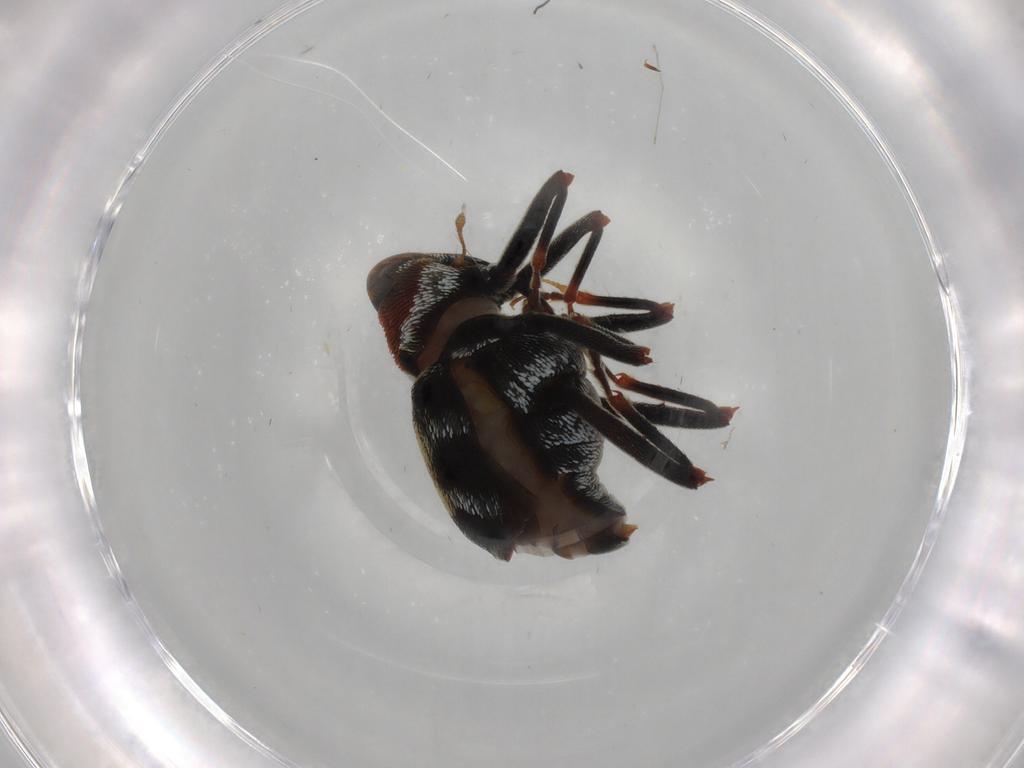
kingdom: Animalia
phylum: Arthropoda
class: Insecta
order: Coleoptera
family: Curculionidae
